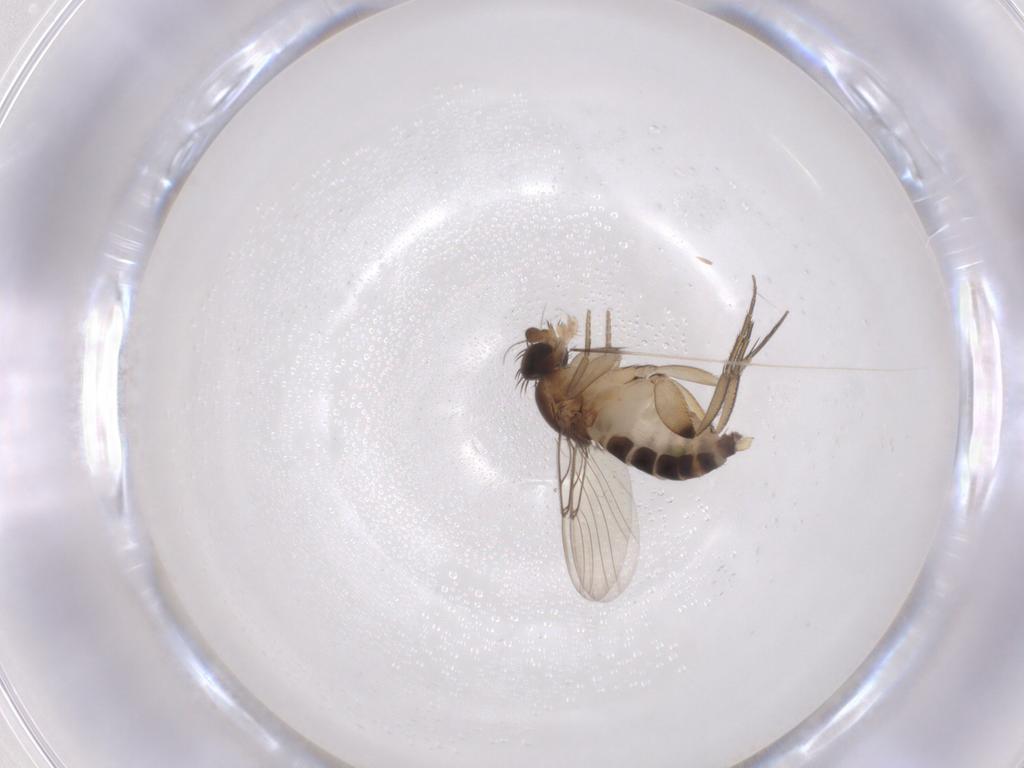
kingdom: Animalia
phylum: Arthropoda
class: Insecta
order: Diptera
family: Phoridae
